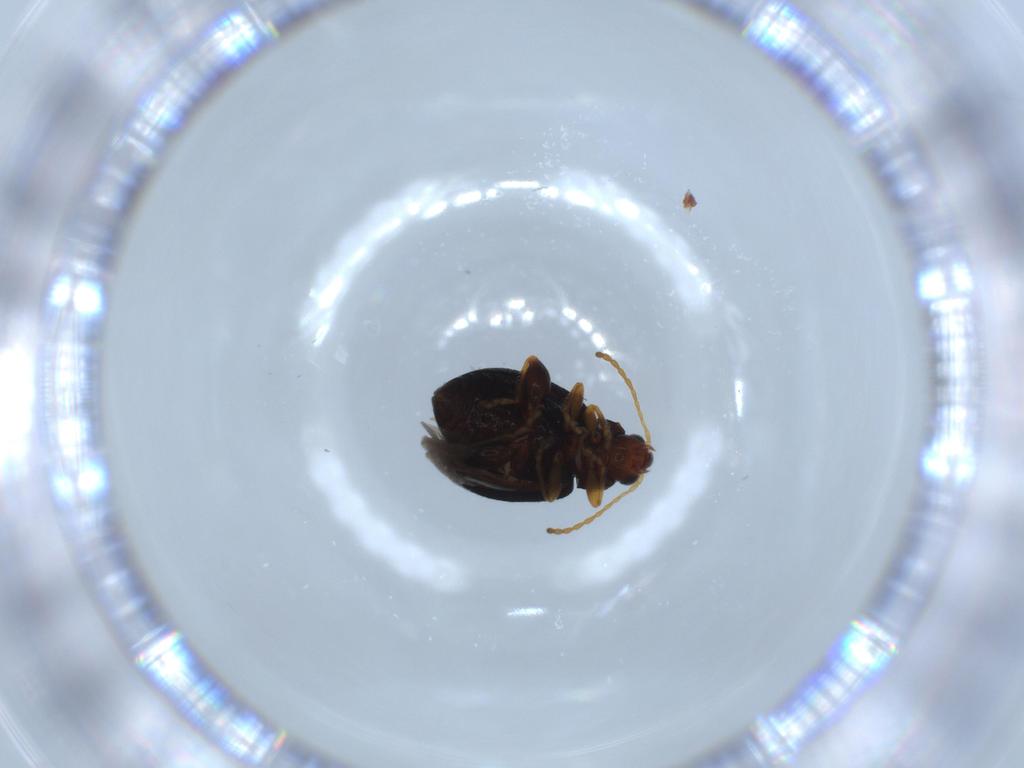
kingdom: Animalia
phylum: Arthropoda
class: Insecta
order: Coleoptera
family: Chrysomelidae
